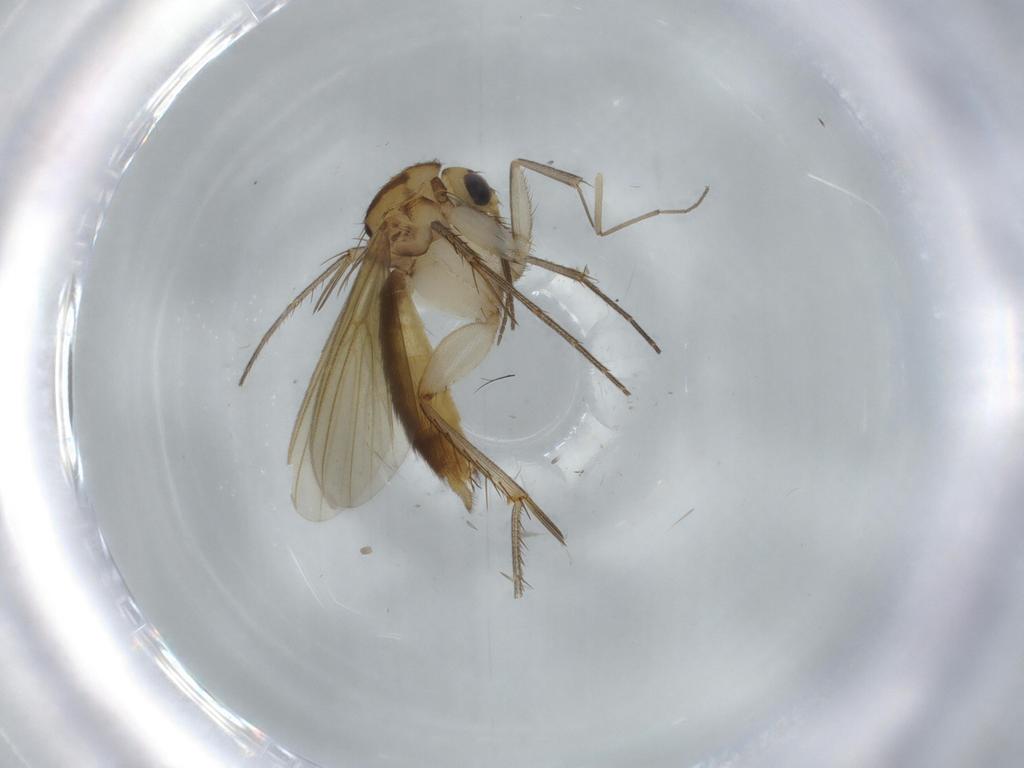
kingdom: Animalia
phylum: Arthropoda
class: Insecta
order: Diptera
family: Mycetophilidae
